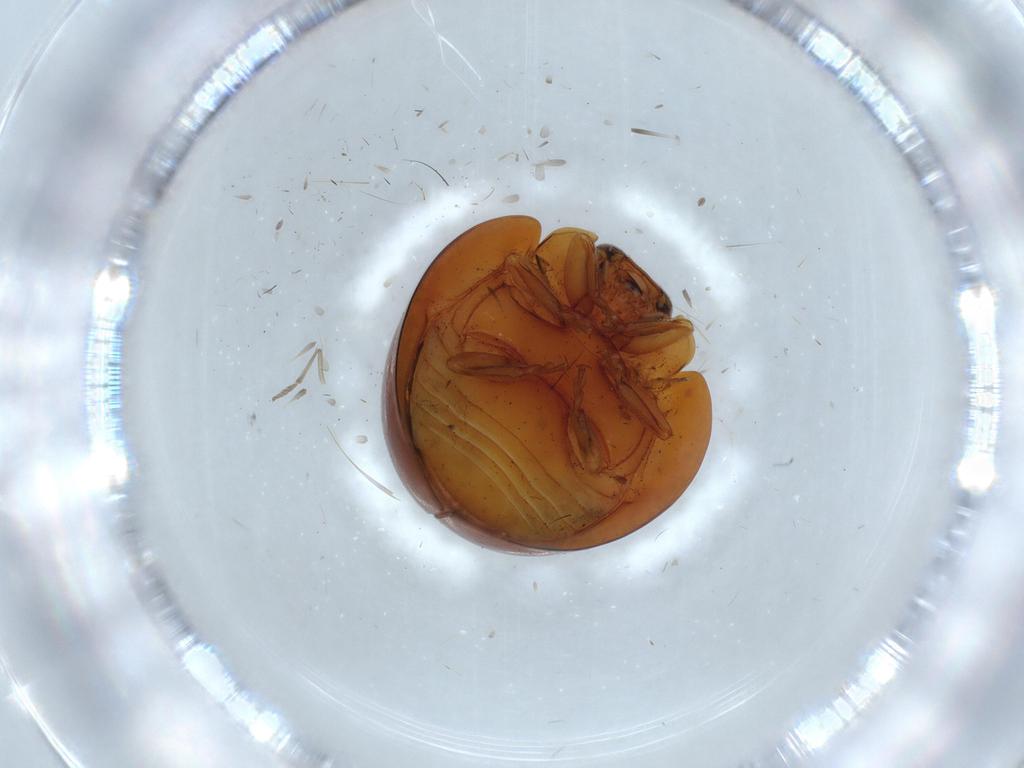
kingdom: Animalia
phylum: Arthropoda
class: Insecta
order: Coleoptera
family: Coccinellidae
